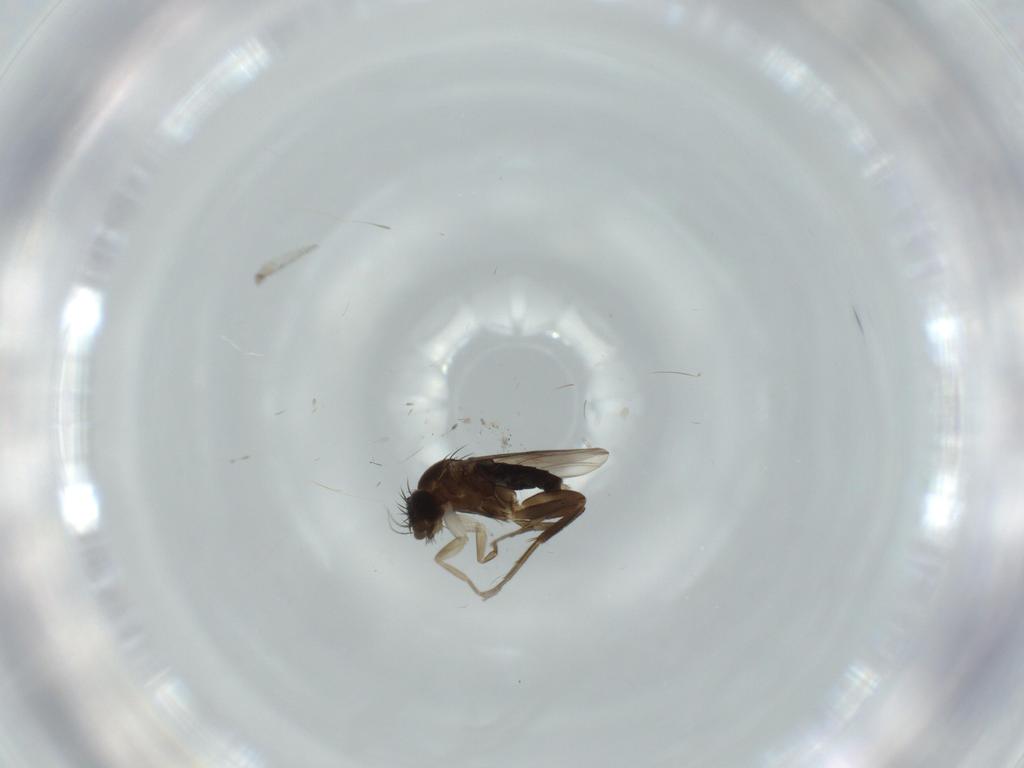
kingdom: Animalia
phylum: Arthropoda
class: Insecta
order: Diptera
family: Phoridae
